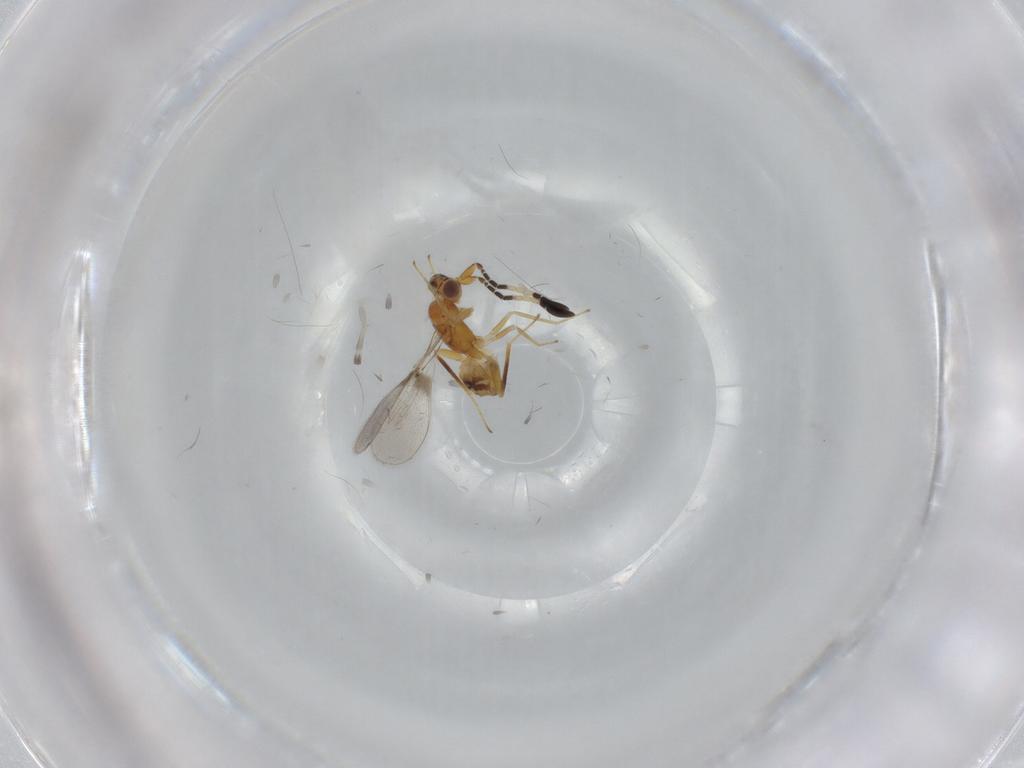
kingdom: Animalia
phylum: Arthropoda
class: Insecta
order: Hymenoptera
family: Vespidae
